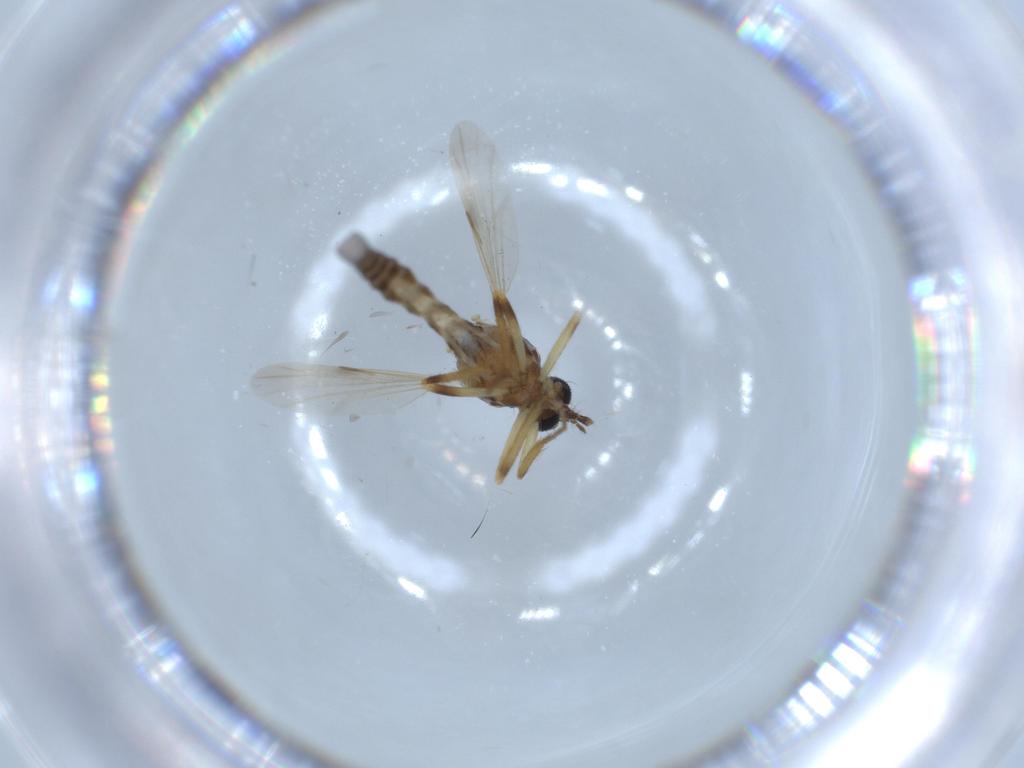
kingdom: Animalia
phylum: Arthropoda
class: Insecta
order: Diptera
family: Ceratopogonidae
